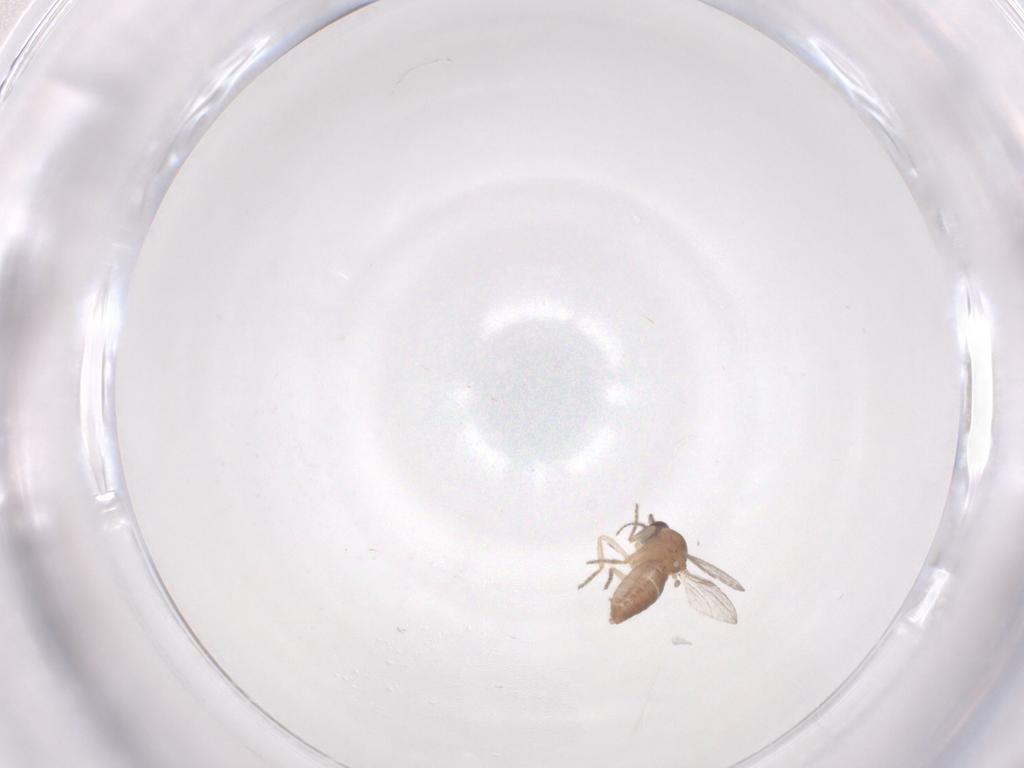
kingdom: Animalia
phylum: Arthropoda
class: Insecta
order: Diptera
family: Ceratopogonidae
